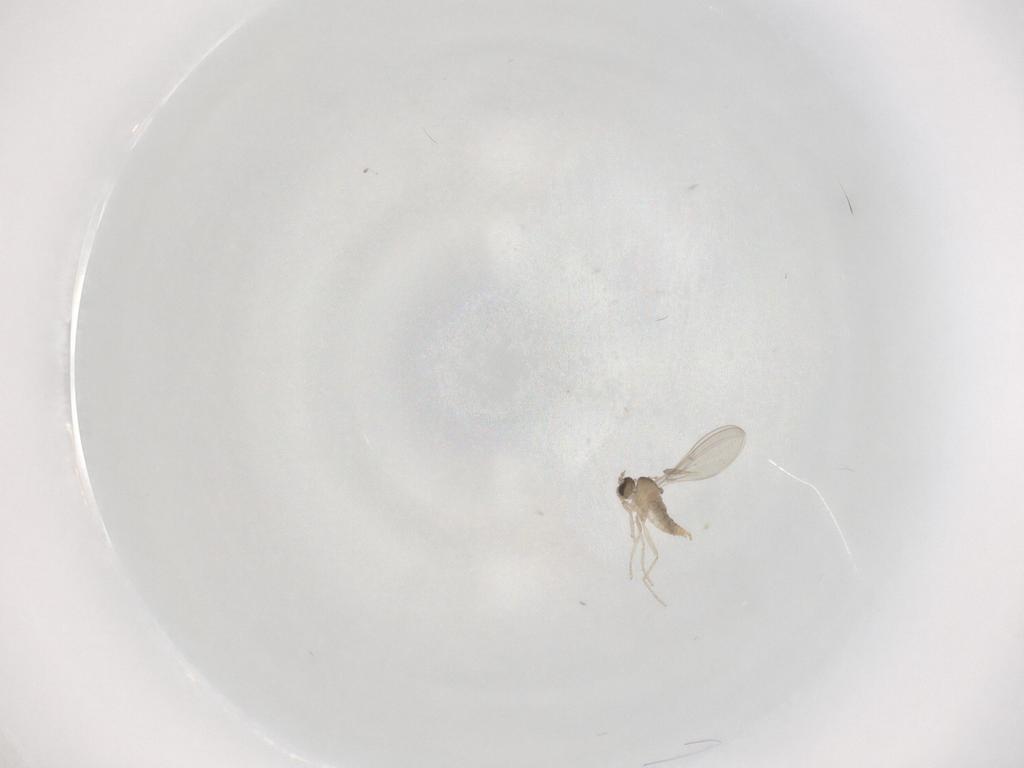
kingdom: Animalia
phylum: Arthropoda
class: Insecta
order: Diptera
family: Cecidomyiidae
